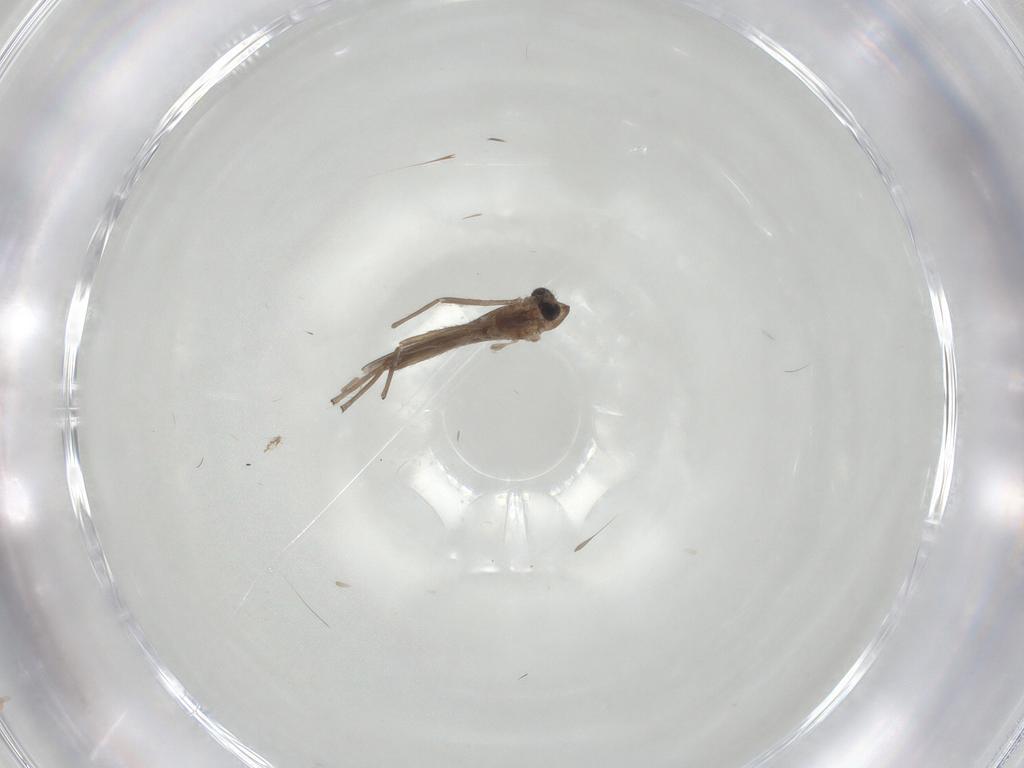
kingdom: Animalia
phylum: Arthropoda
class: Insecta
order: Diptera
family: Chironomidae
